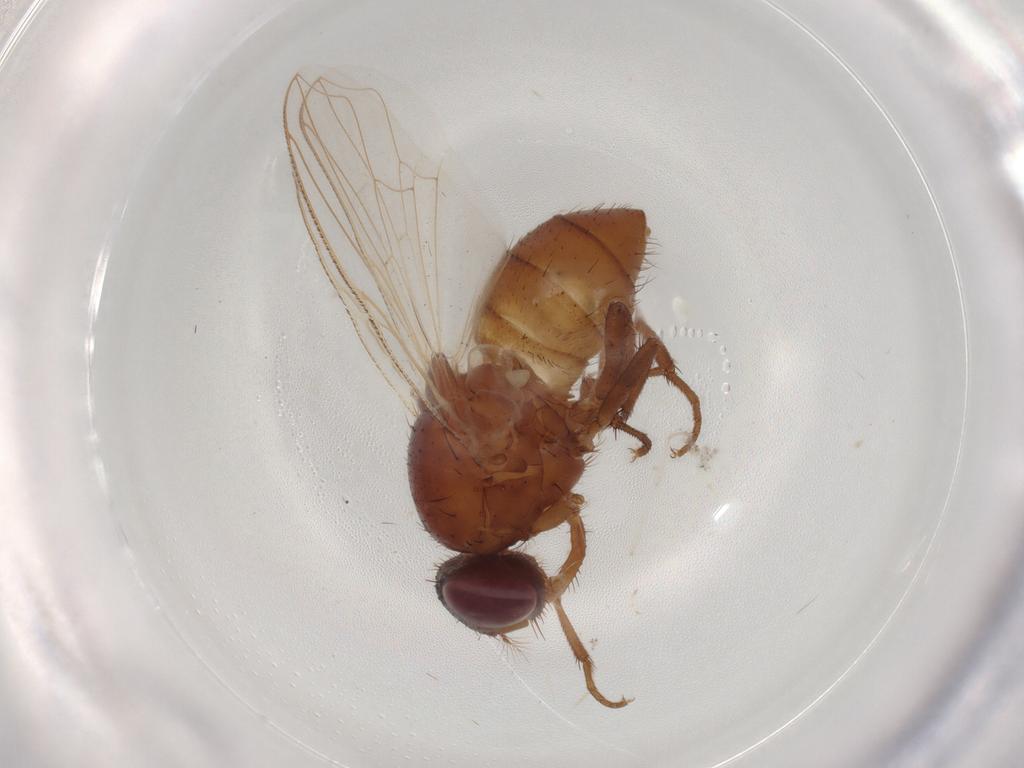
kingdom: Animalia
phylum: Arthropoda
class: Insecta
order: Diptera
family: Cecidomyiidae
